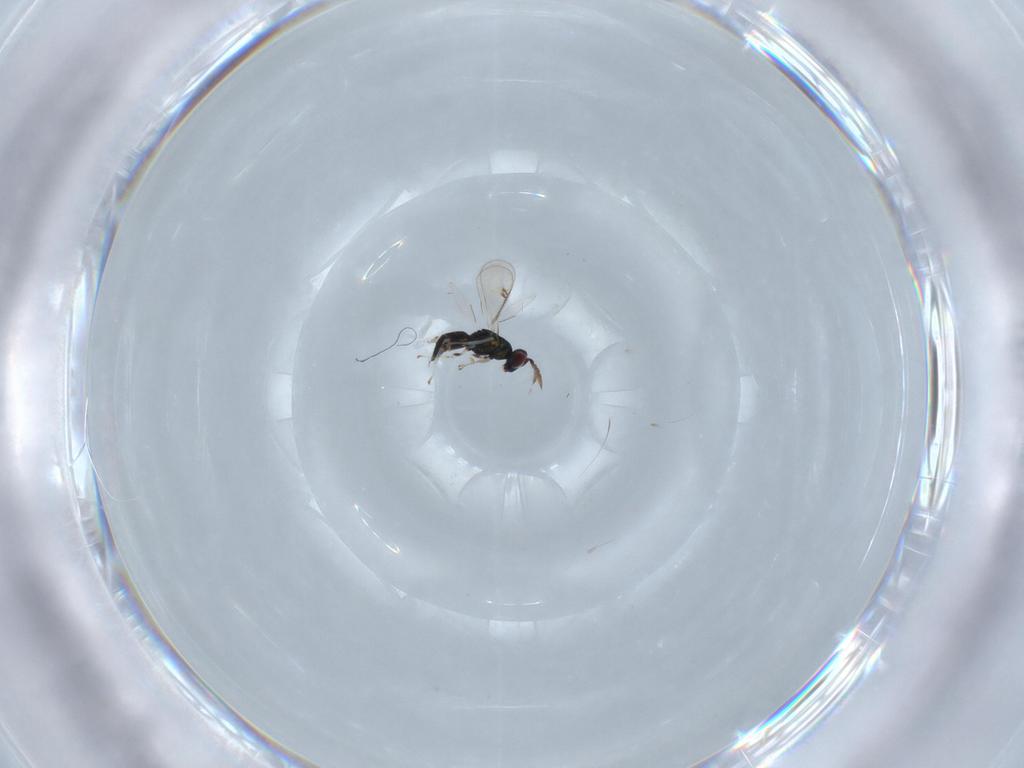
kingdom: Animalia
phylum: Arthropoda
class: Insecta
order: Hymenoptera
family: Eulophidae
